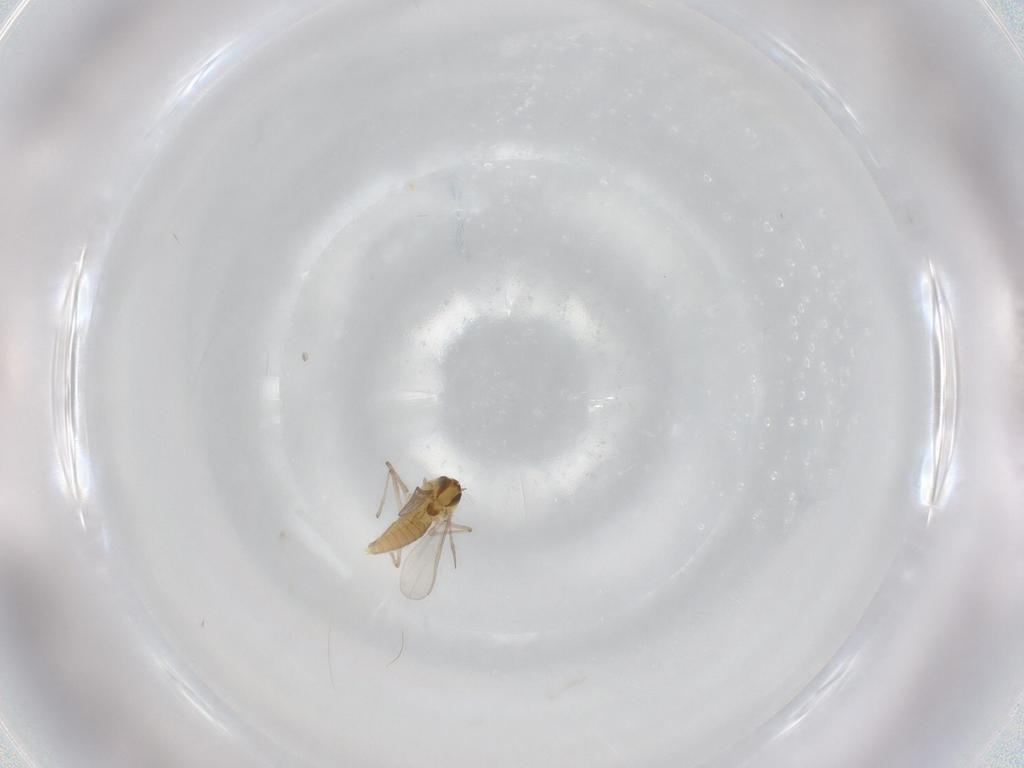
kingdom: Animalia
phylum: Arthropoda
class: Insecta
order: Diptera
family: Chironomidae
